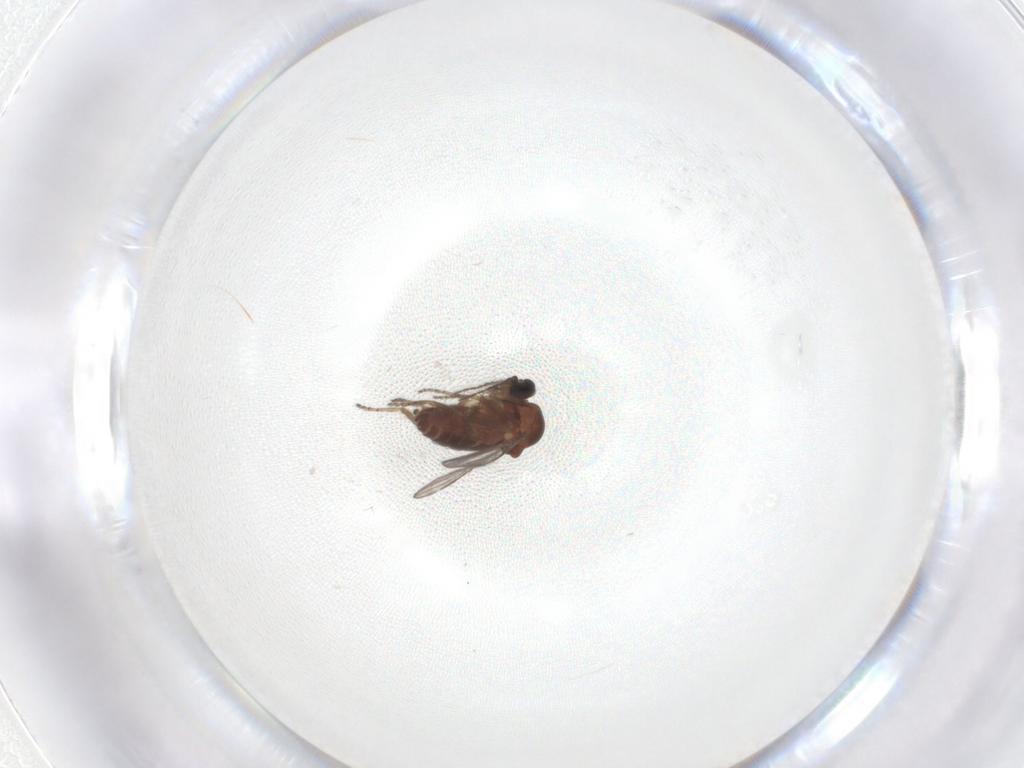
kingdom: Animalia
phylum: Arthropoda
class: Insecta
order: Diptera
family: Ceratopogonidae
